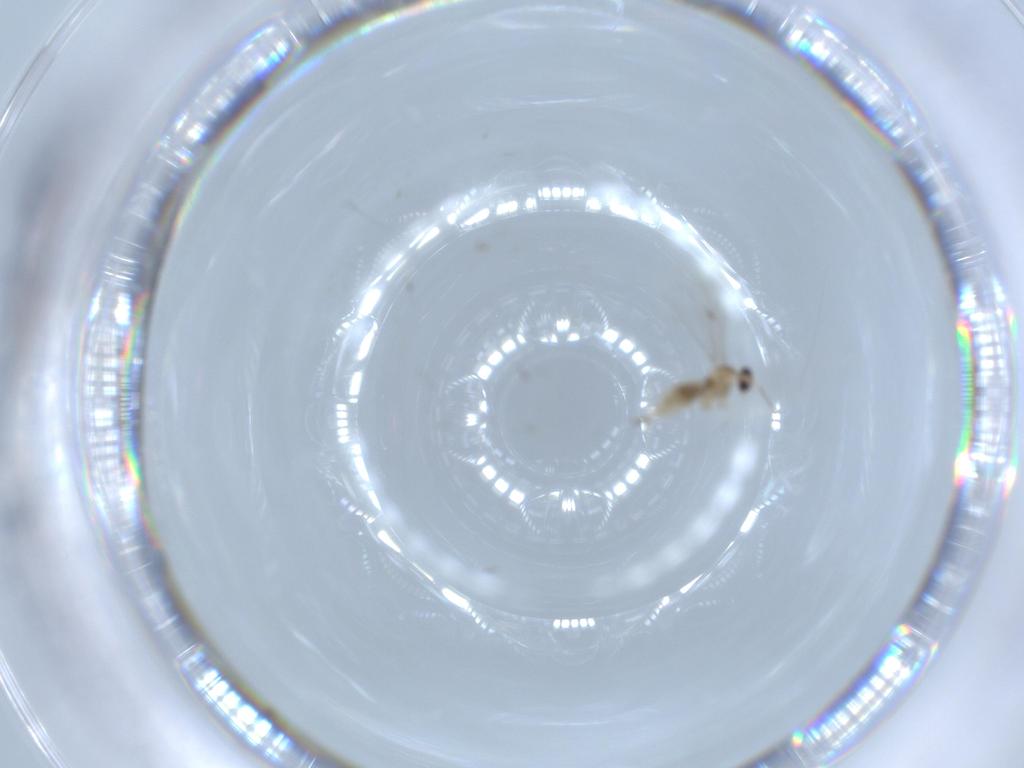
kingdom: Animalia
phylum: Arthropoda
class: Insecta
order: Diptera
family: Cecidomyiidae
